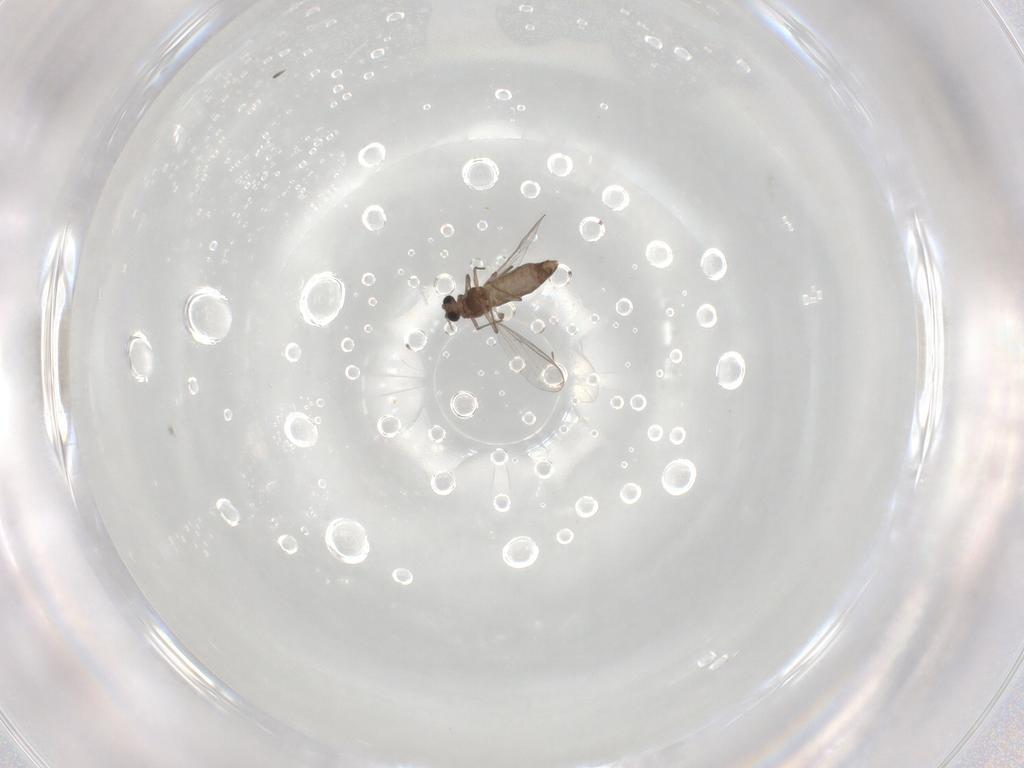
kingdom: Animalia
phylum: Arthropoda
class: Insecta
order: Diptera
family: Chironomidae
